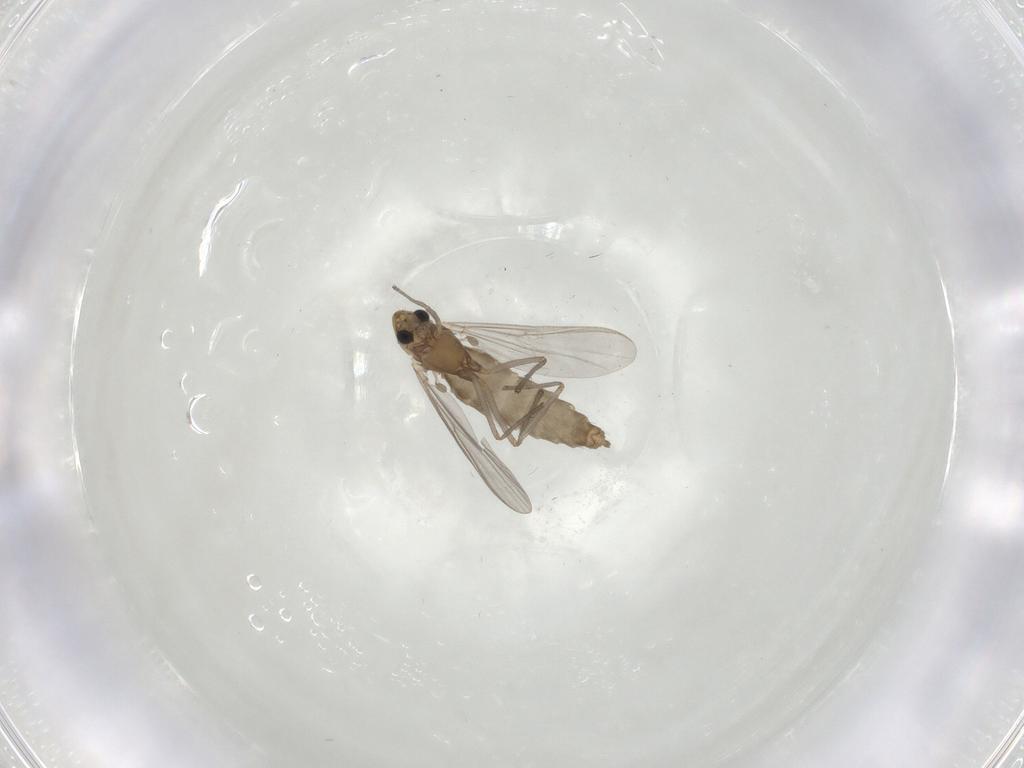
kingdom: Animalia
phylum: Arthropoda
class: Insecta
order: Diptera
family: Chironomidae
